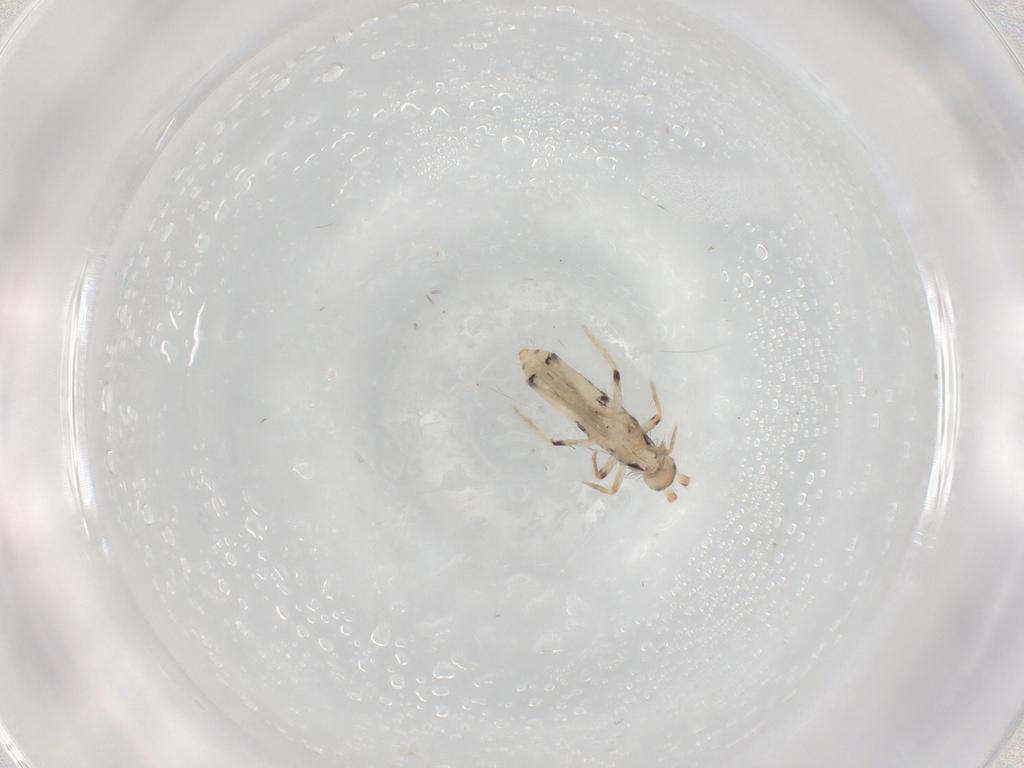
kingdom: Animalia
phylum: Arthropoda
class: Collembola
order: Entomobryomorpha
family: Entomobryidae
